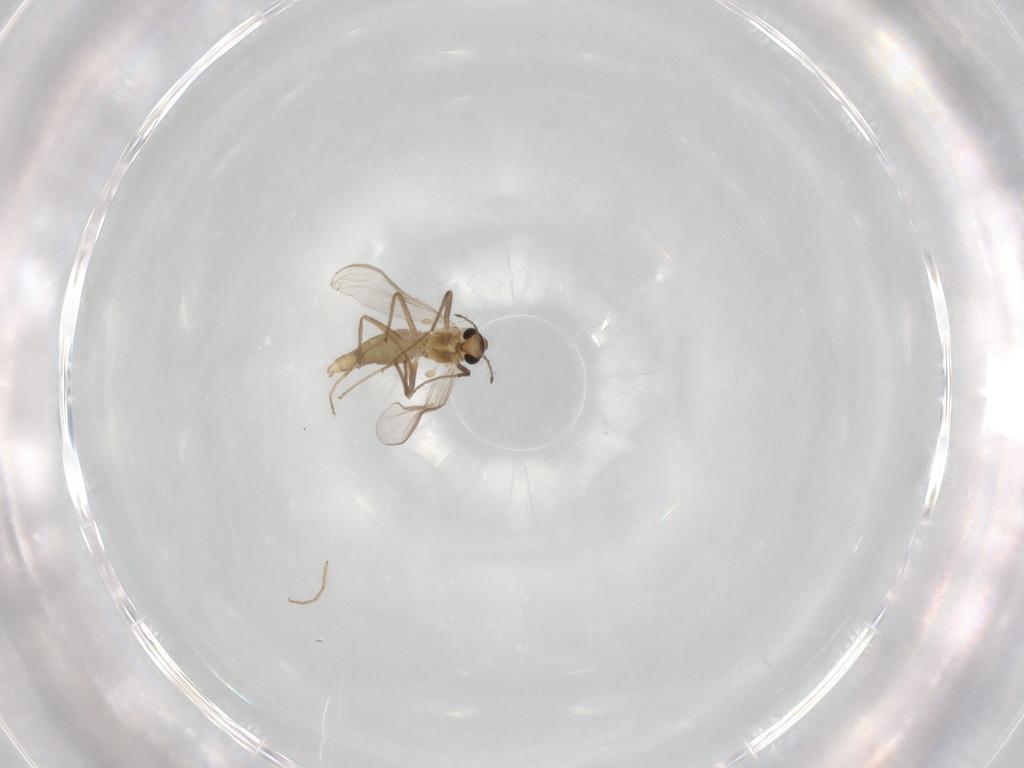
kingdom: Animalia
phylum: Arthropoda
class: Insecta
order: Diptera
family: Chironomidae
